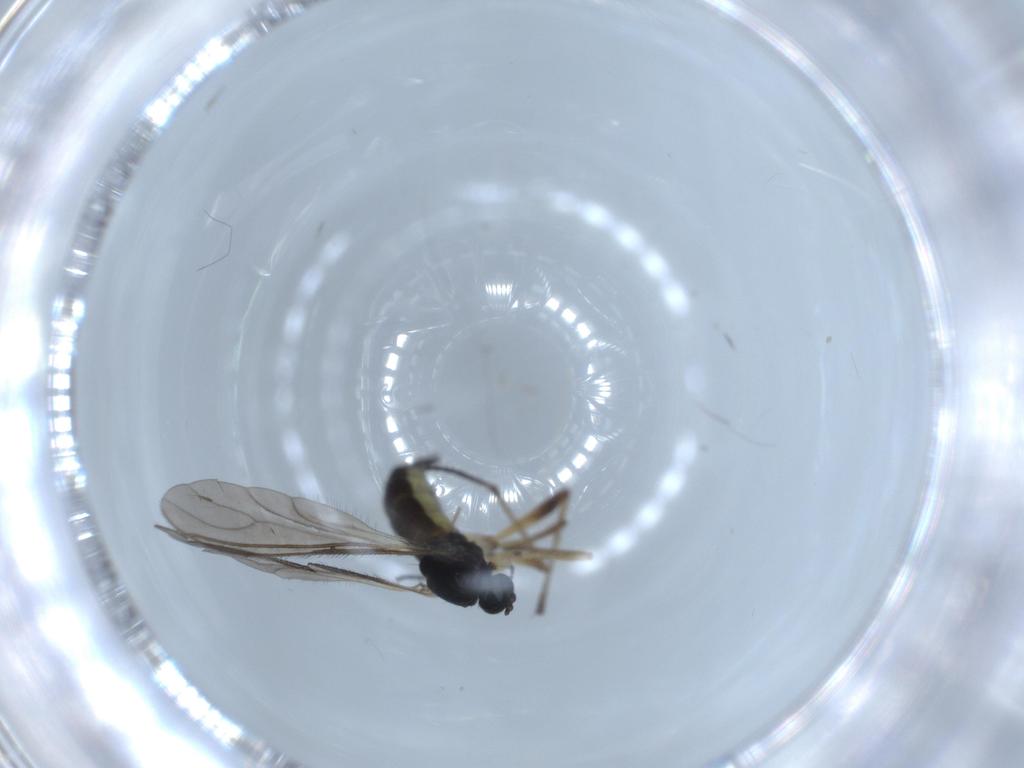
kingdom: Animalia
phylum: Arthropoda
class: Insecta
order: Diptera
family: Sciaridae
